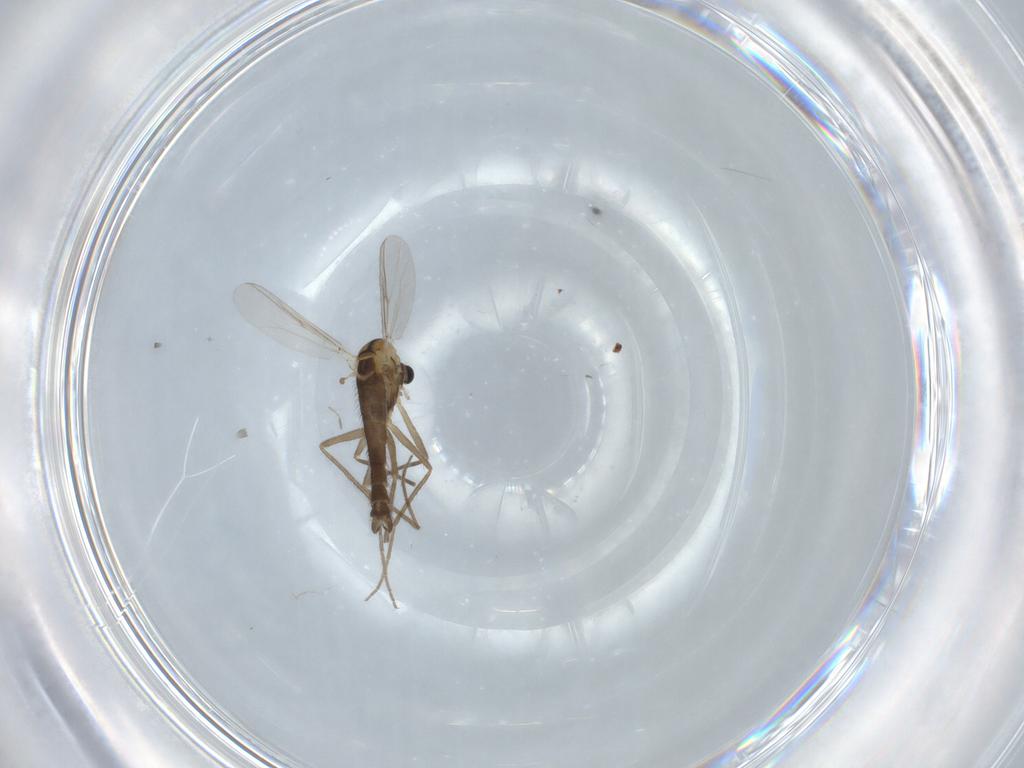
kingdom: Animalia
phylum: Arthropoda
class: Insecta
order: Diptera
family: Chironomidae
